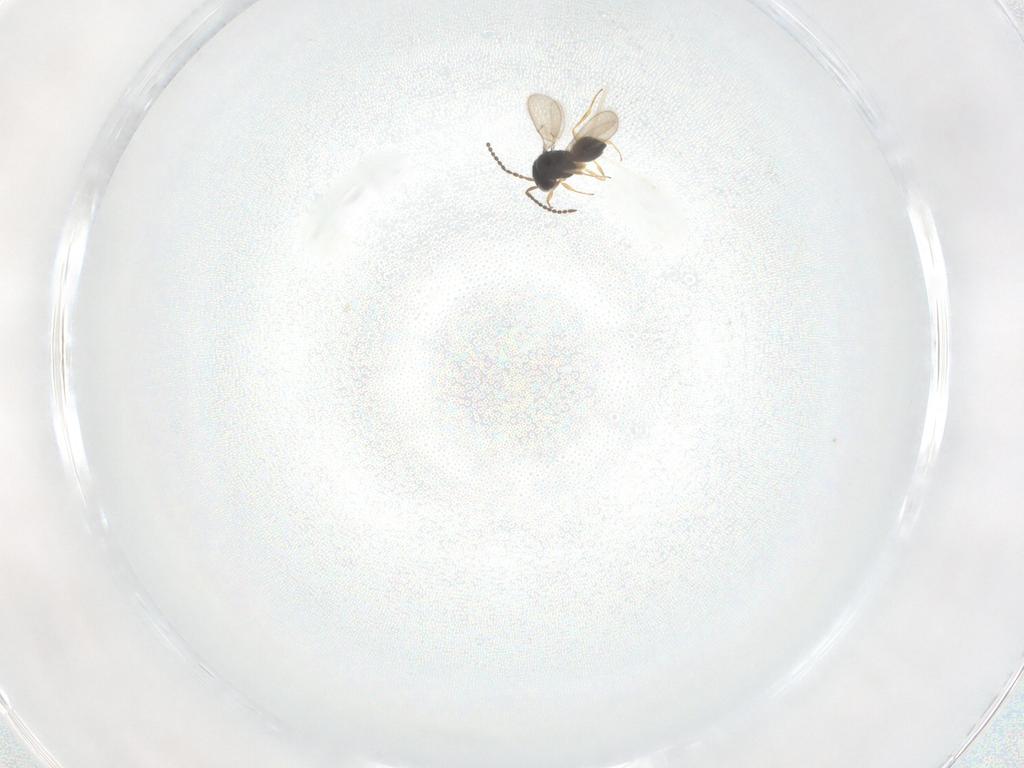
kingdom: Animalia
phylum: Arthropoda
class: Insecta
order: Hymenoptera
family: Scelionidae
